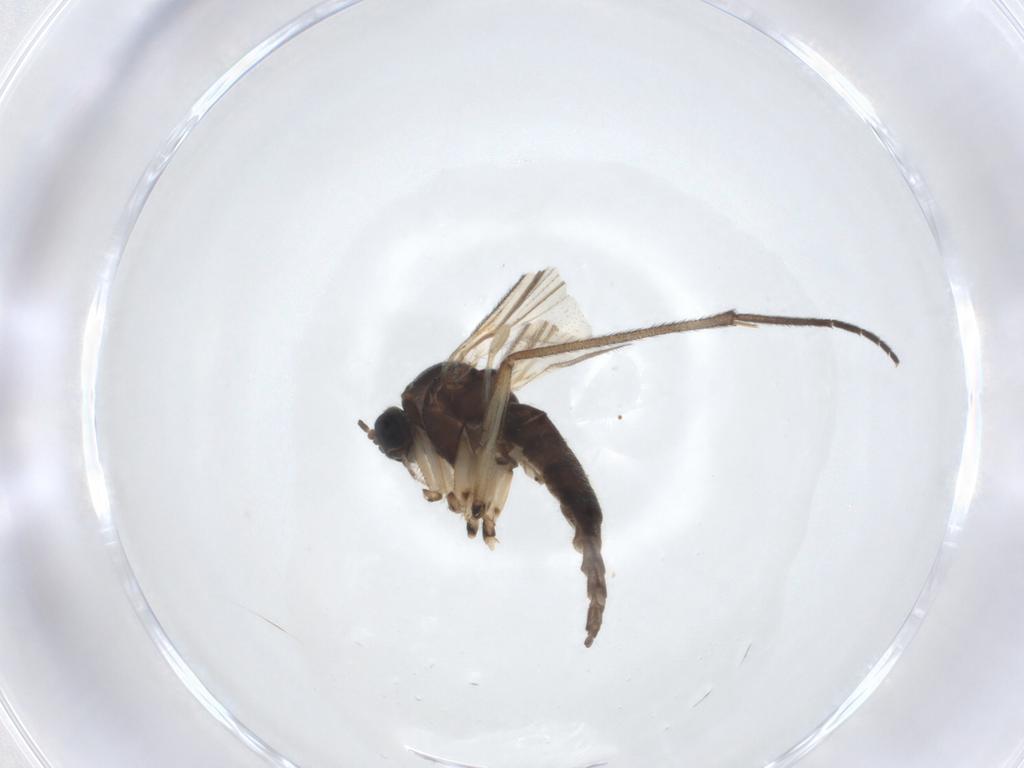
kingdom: Animalia
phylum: Arthropoda
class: Insecta
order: Diptera
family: Sciaridae
